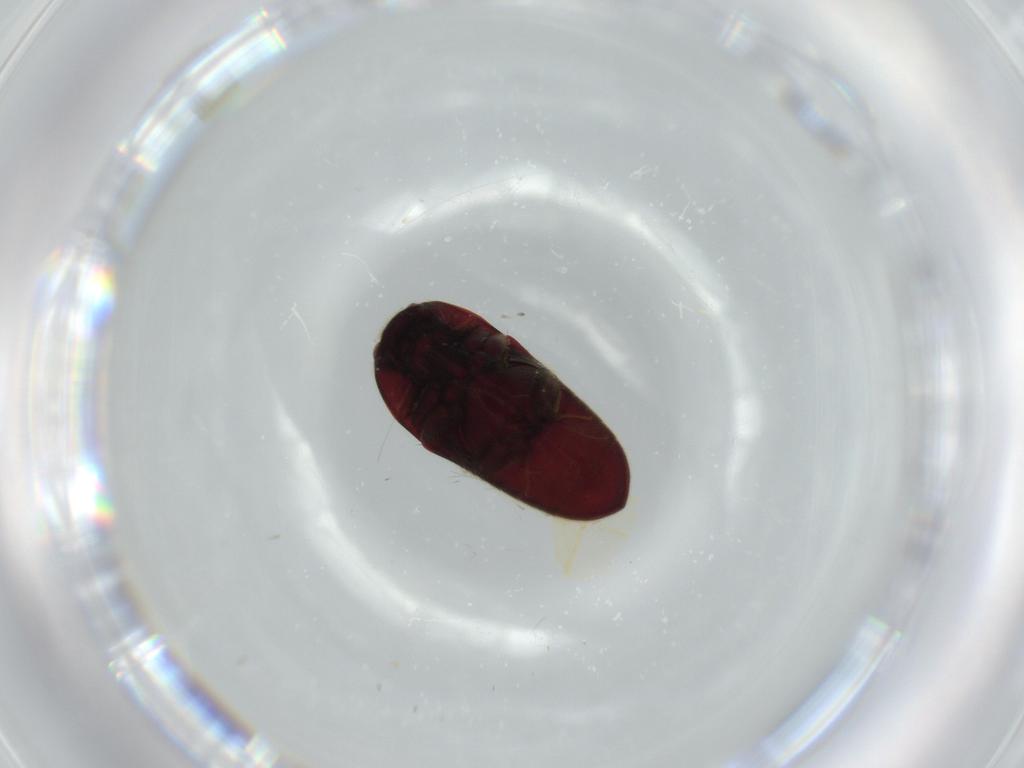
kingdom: Animalia
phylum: Arthropoda
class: Insecta
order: Coleoptera
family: Throscidae
